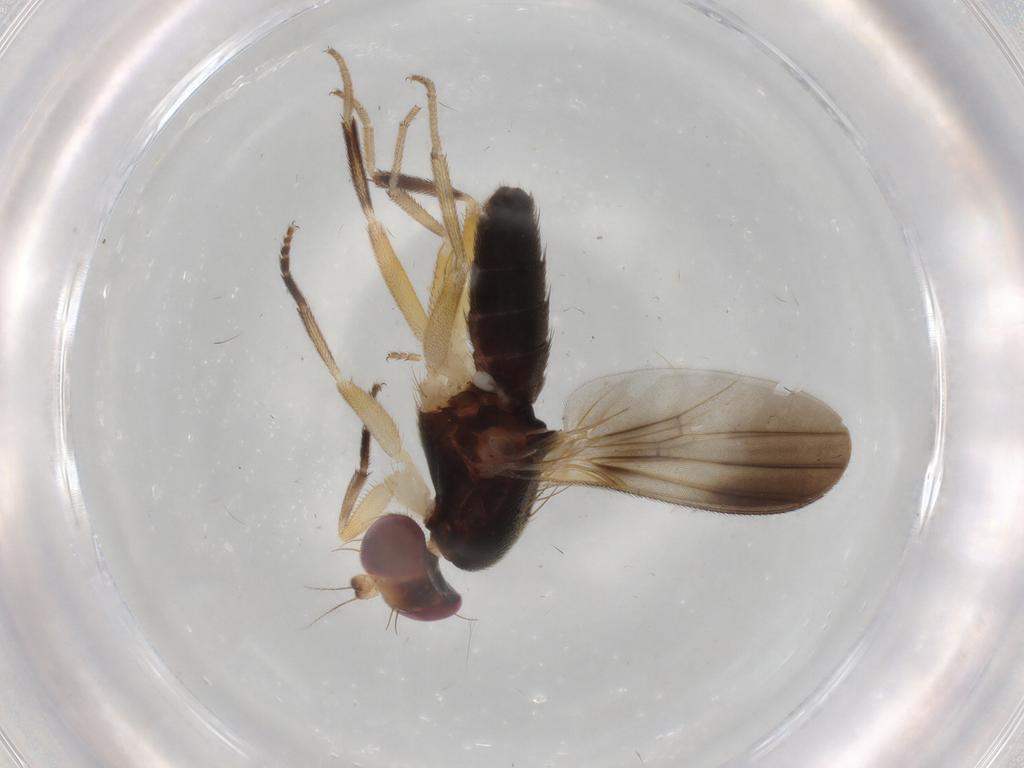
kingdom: Animalia
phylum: Arthropoda
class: Insecta
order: Diptera
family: Clusiidae
